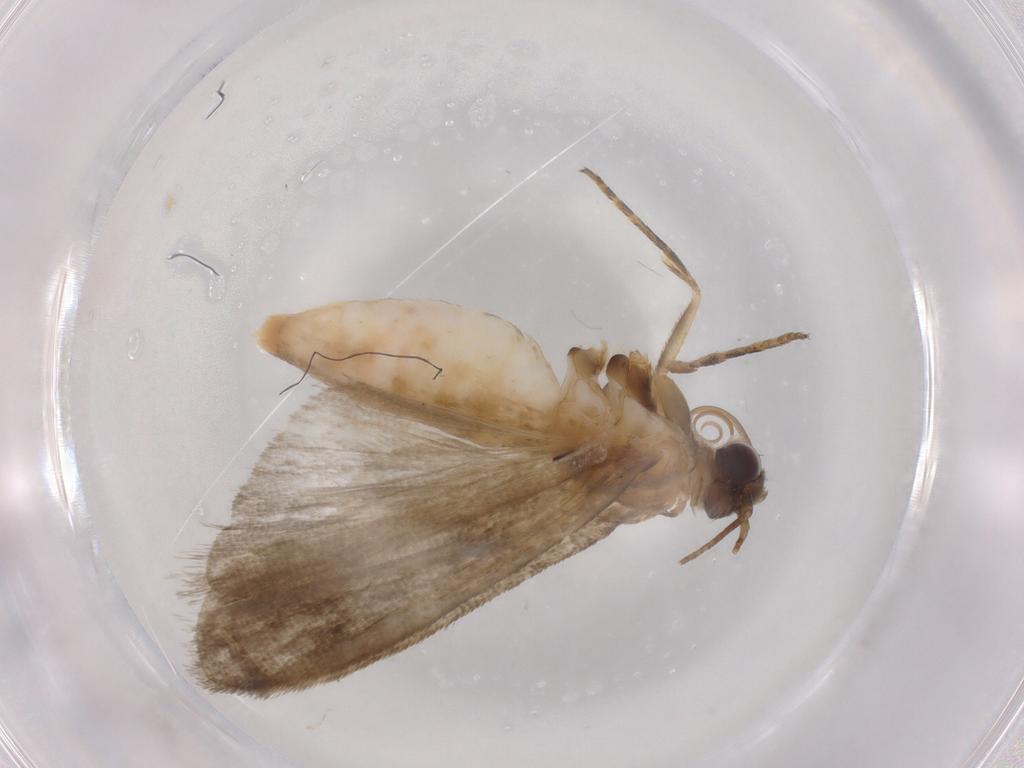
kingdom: Animalia
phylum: Arthropoda
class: Insecta
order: Lepidoptera
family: Noctuidae
